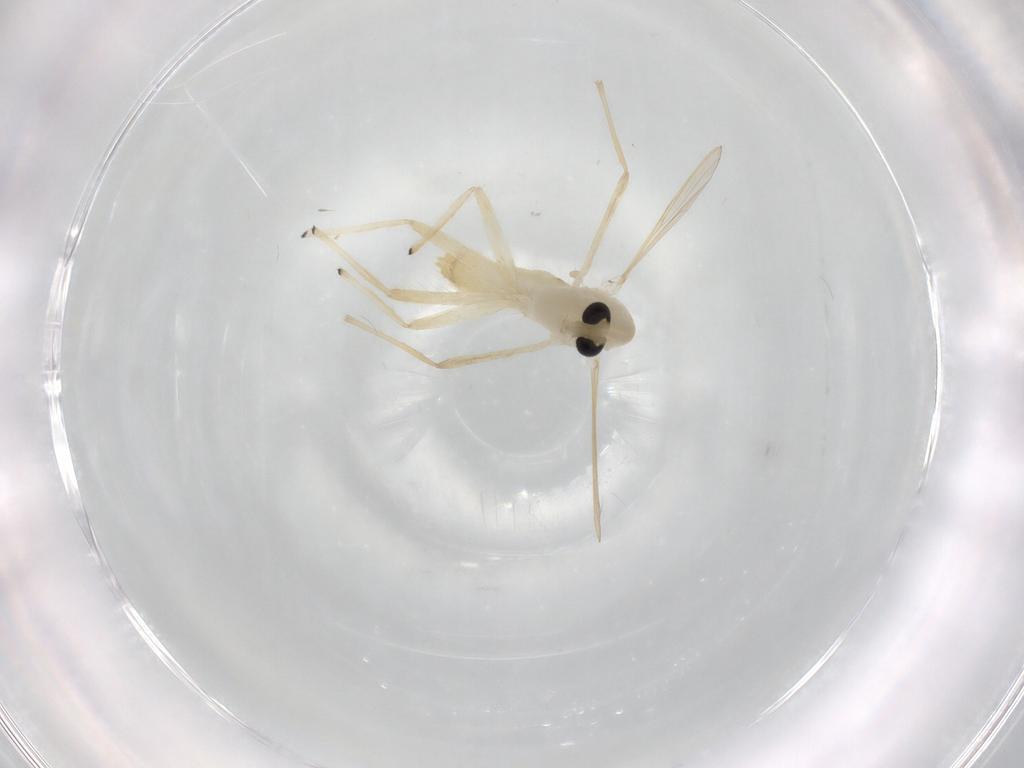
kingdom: Animalia
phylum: Arthropoda
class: Insecta
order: Diptera
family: Chironomidae
